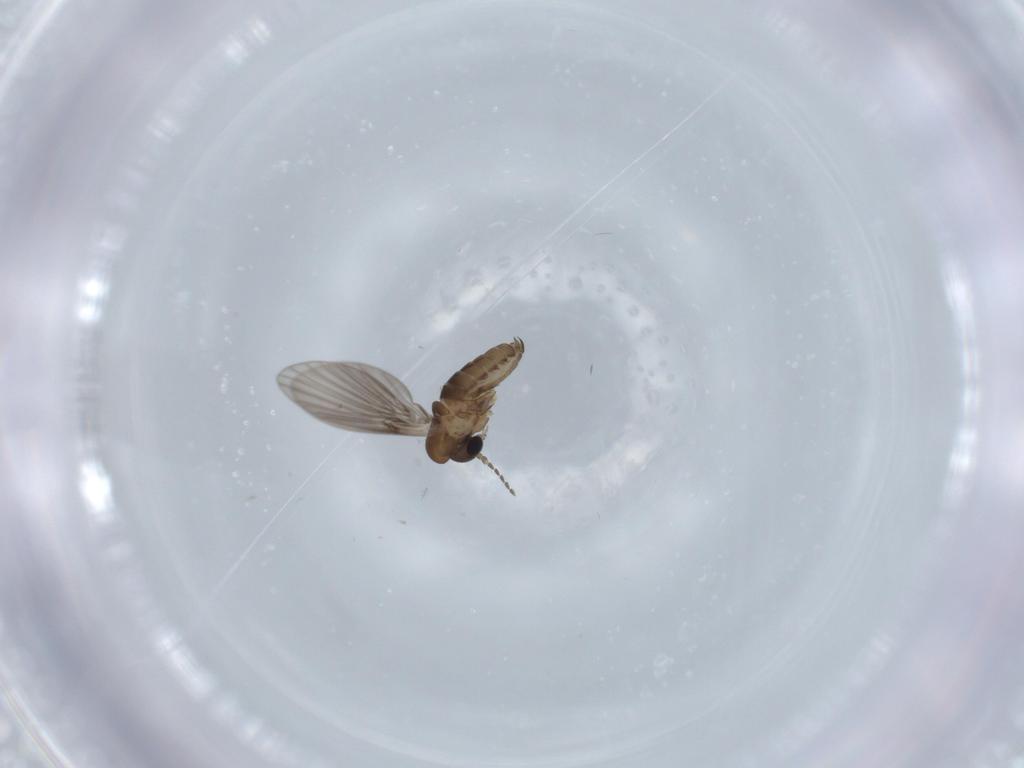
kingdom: Animalia
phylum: Arthropoda
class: Insecta
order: Diptera
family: Psychodidae
